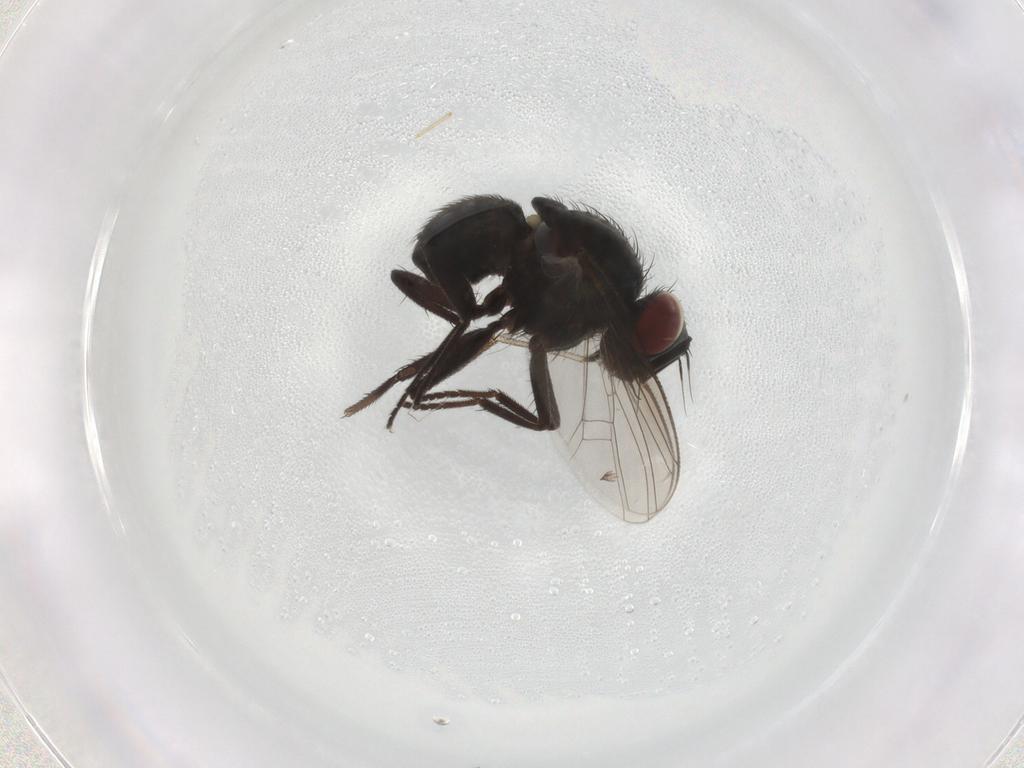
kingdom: Animalia
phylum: Arthropoda
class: Insecta
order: Diptera
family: Muscidae
